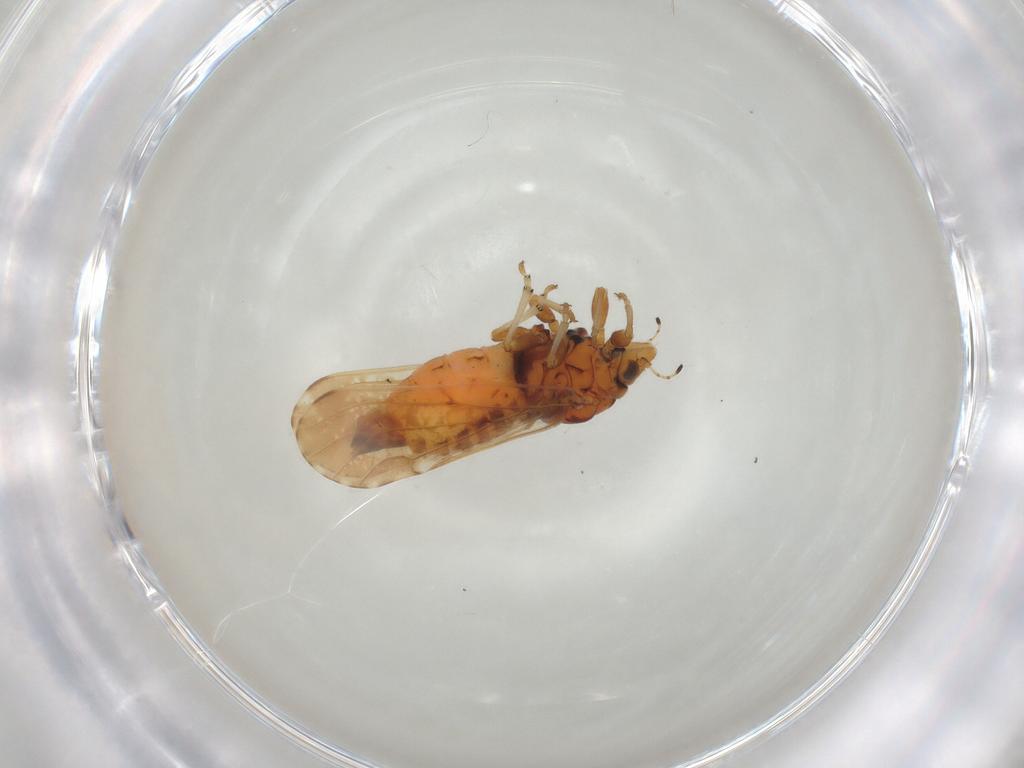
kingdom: Animalia
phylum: Arthropoda
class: Insecta
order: Hemiptera
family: Cicadellidae
